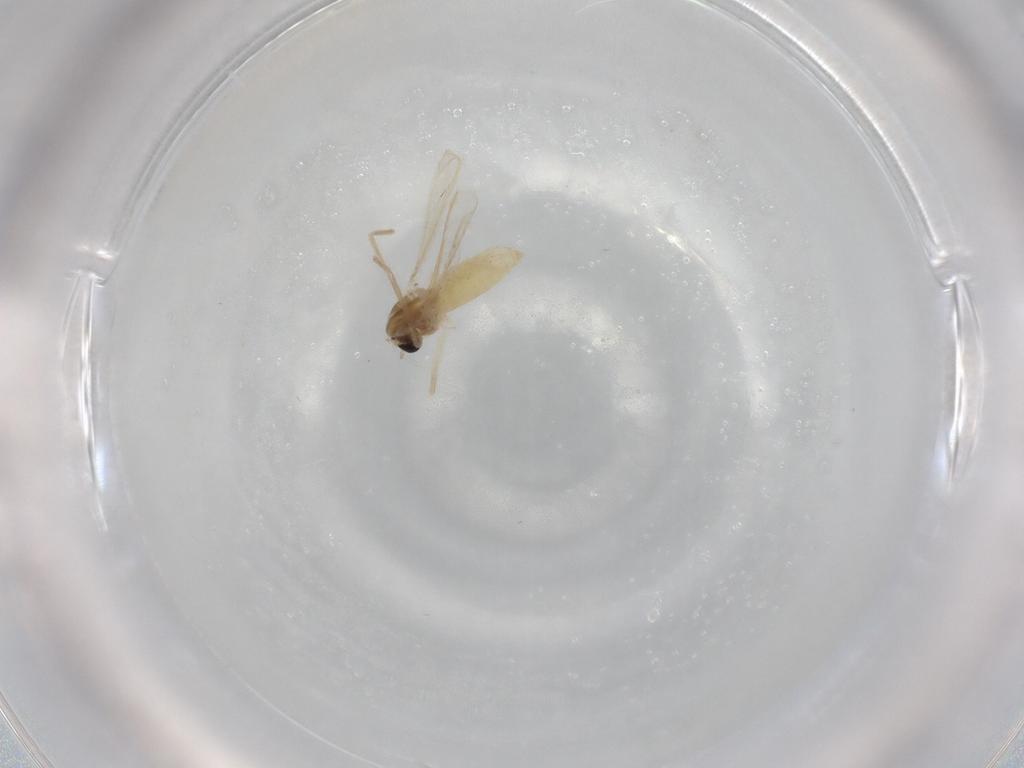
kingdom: Animalia
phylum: Arthropoda
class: Insecta
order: Diptera
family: Chironomidae
